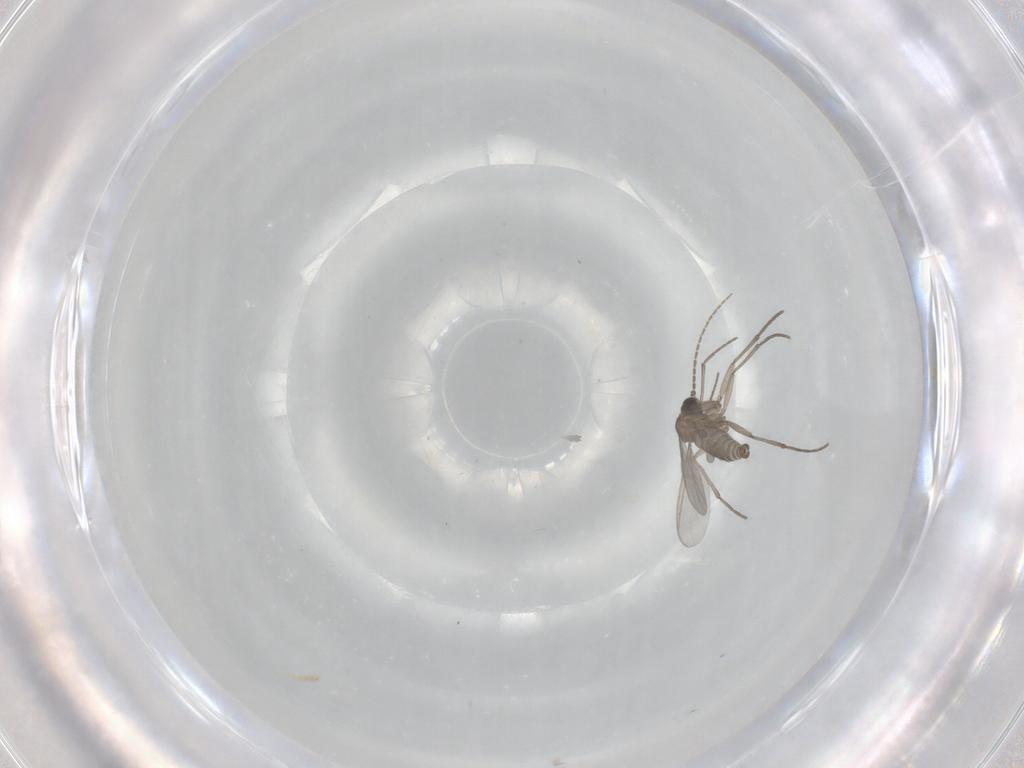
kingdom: Animalia
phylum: Arthropoda
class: Insecta
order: Diptera
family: Sciaridae
